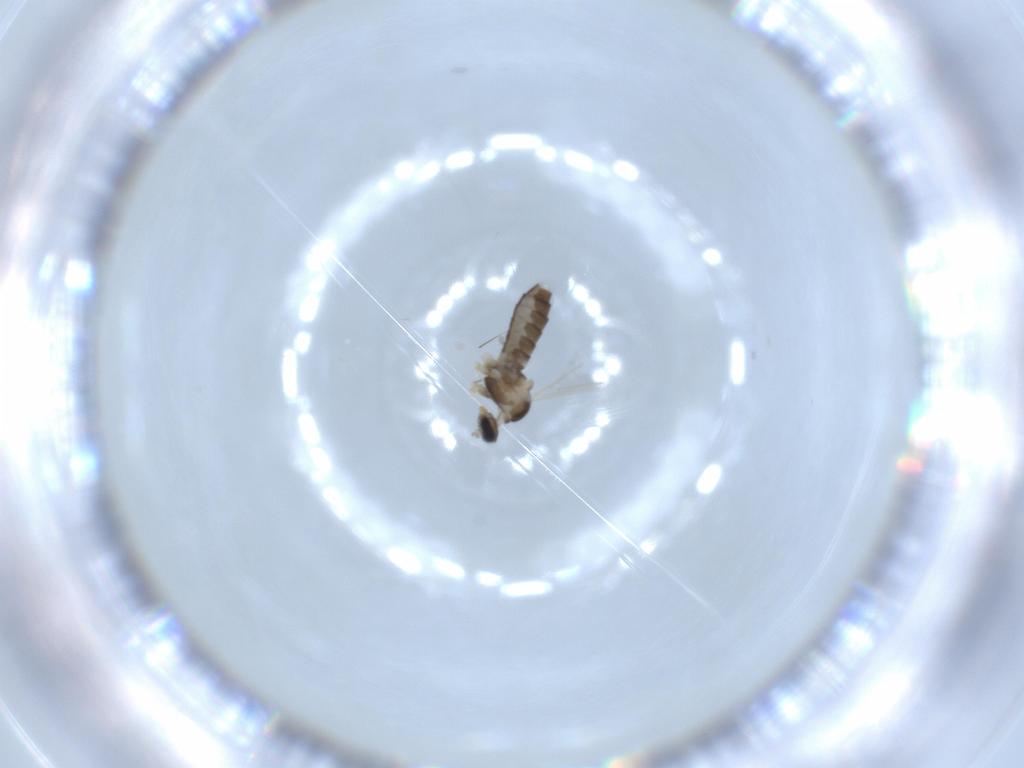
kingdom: Animalia
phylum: Arthropoda
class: Insecta
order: Diptera
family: Cecidomyiidae
